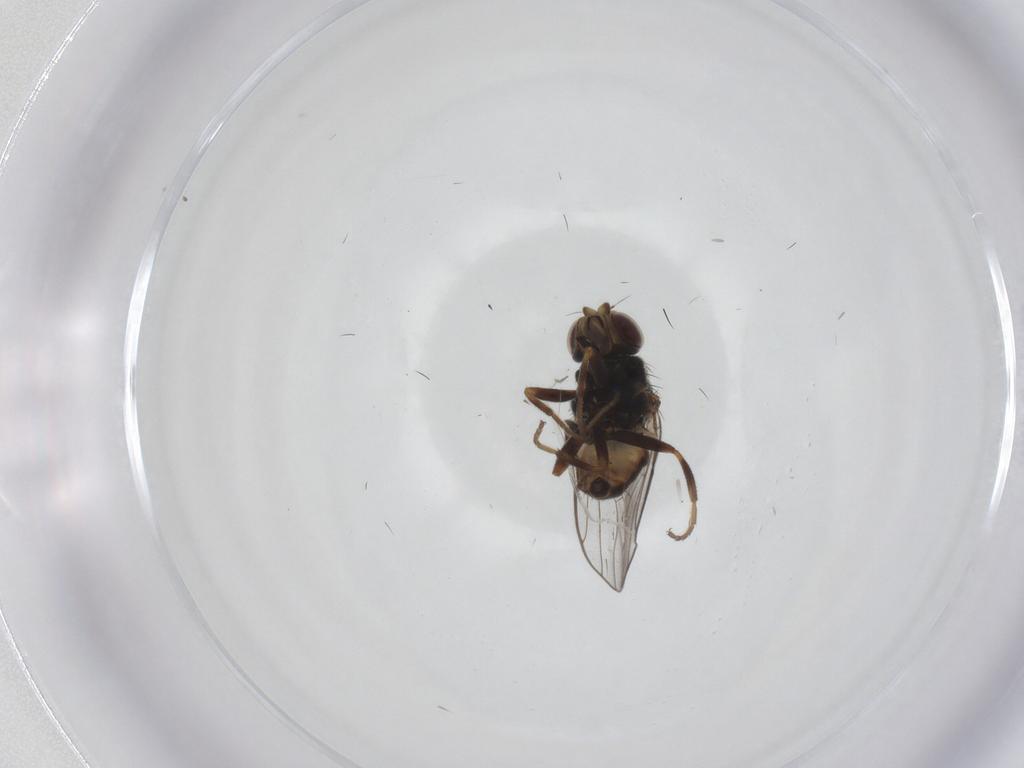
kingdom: Animalia
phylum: Arthropoda
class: Insecta
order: Diptera
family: Chloropidae
